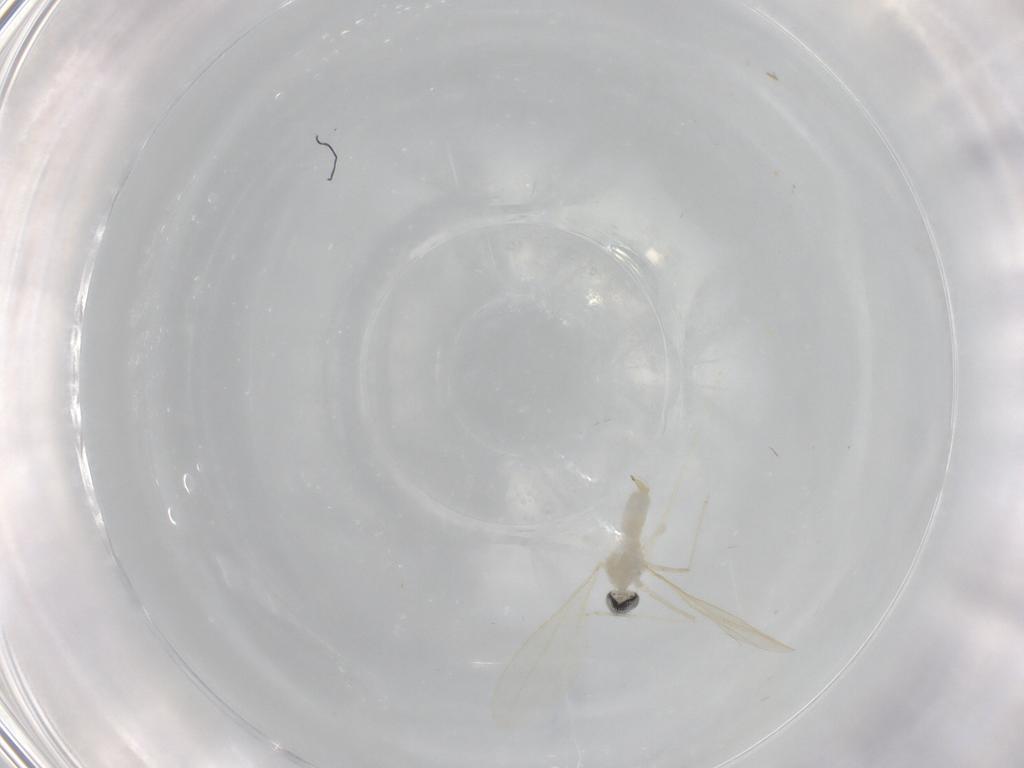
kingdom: Animalia
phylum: Arthropoda
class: Insecta
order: Diptera
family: Cecidomyiidae
